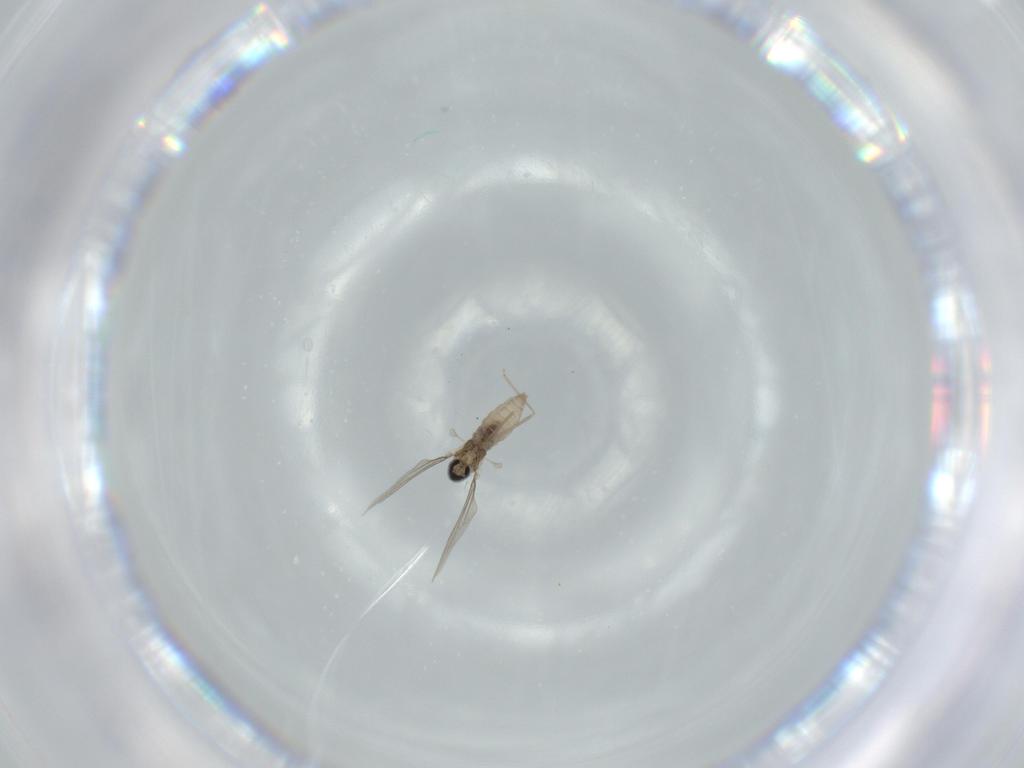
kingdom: Animalia
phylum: Arthropoda
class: Insecta
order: Diptera
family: Cecidomyiidae
